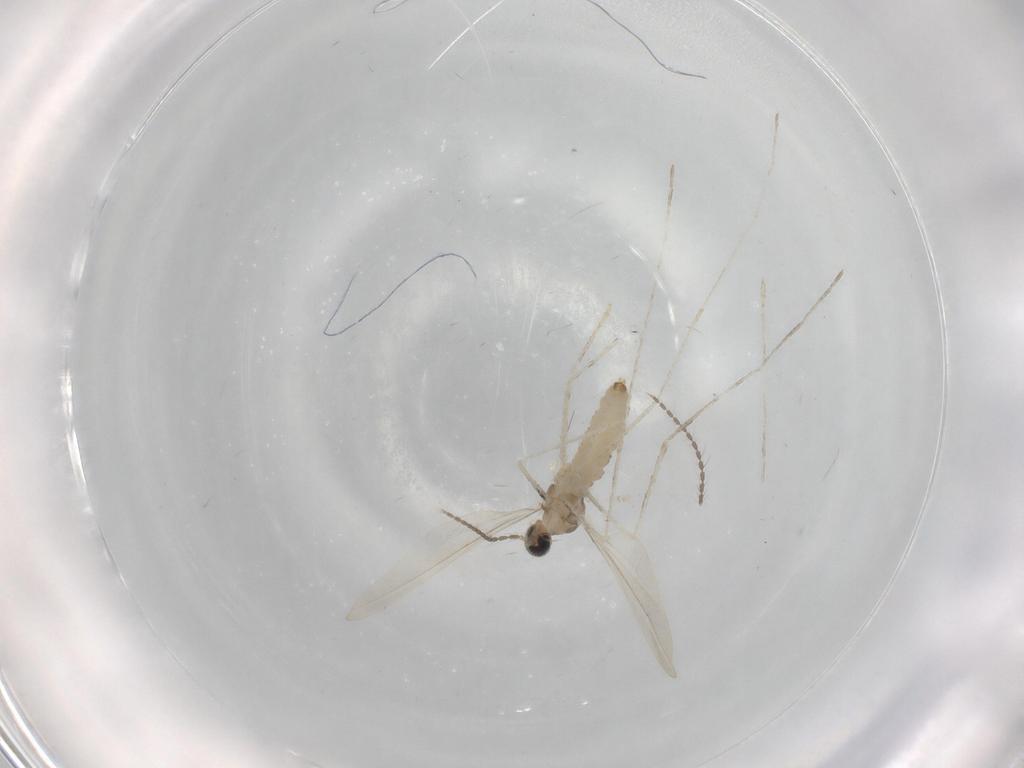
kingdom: Animalia
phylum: Arthropoda
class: Insecta
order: Diptera
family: Cecidomyiidae
